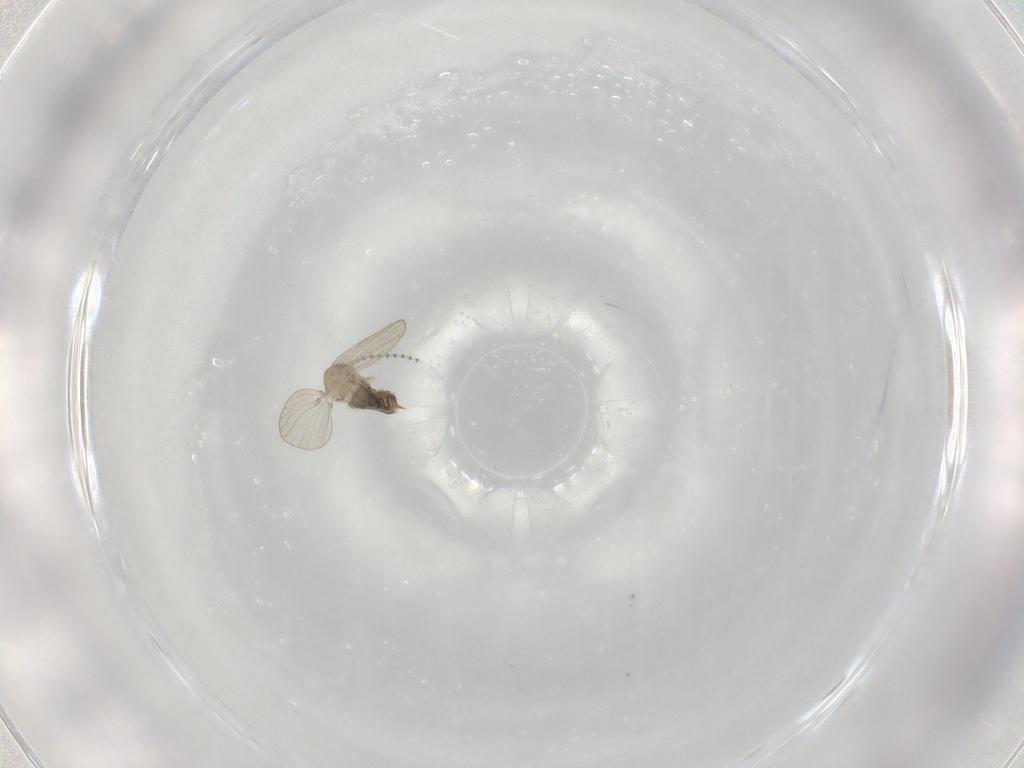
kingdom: Animalia
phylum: Arthropoda
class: Insecta
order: Diptera
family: Psychodidae
